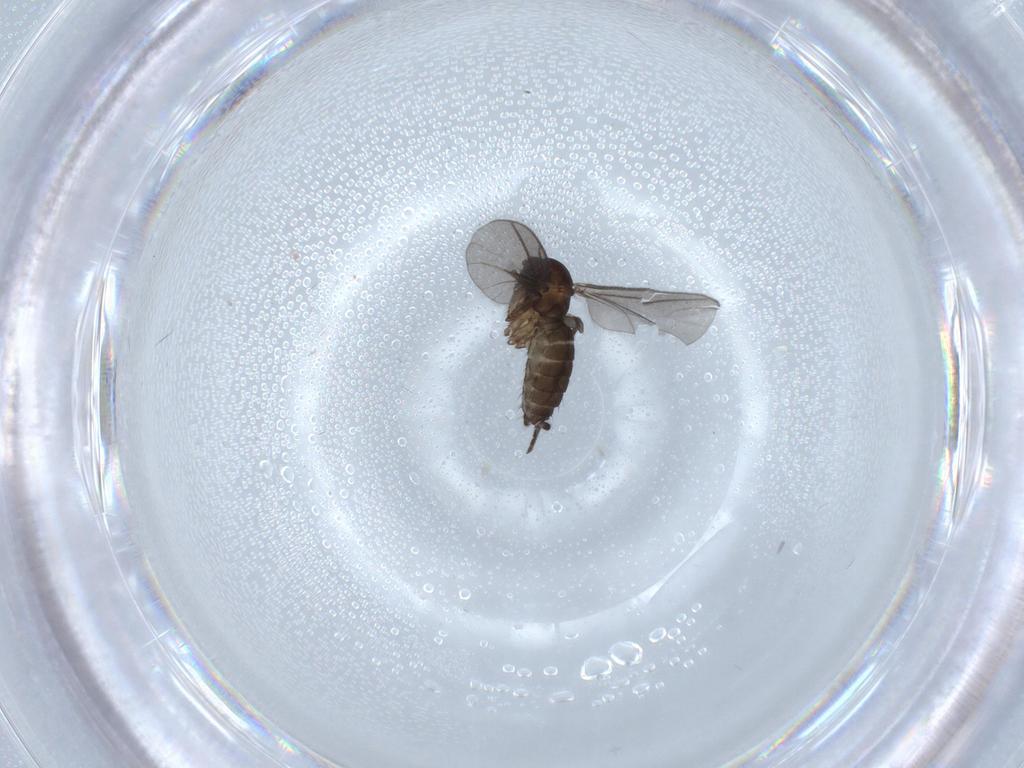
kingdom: Animalia
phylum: Arthropoda
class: Insecta
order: Diptera
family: Sciaridae
